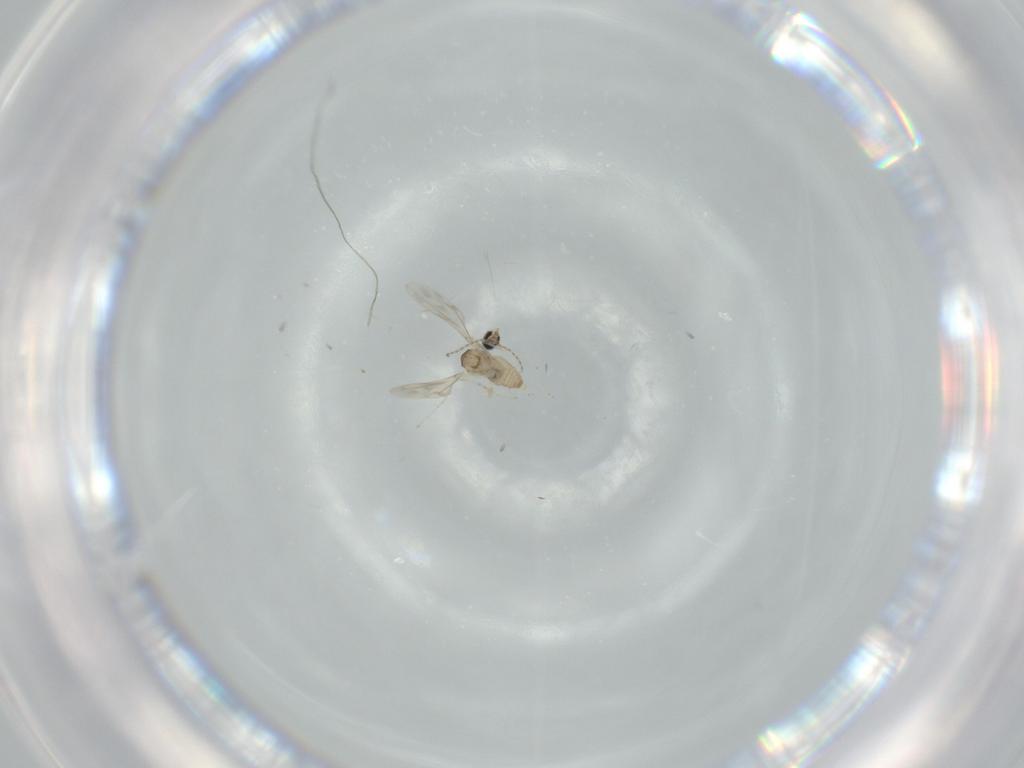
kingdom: Animalia
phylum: Arthropoda
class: Insecta
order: Diptera
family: Cecidomyiidae
